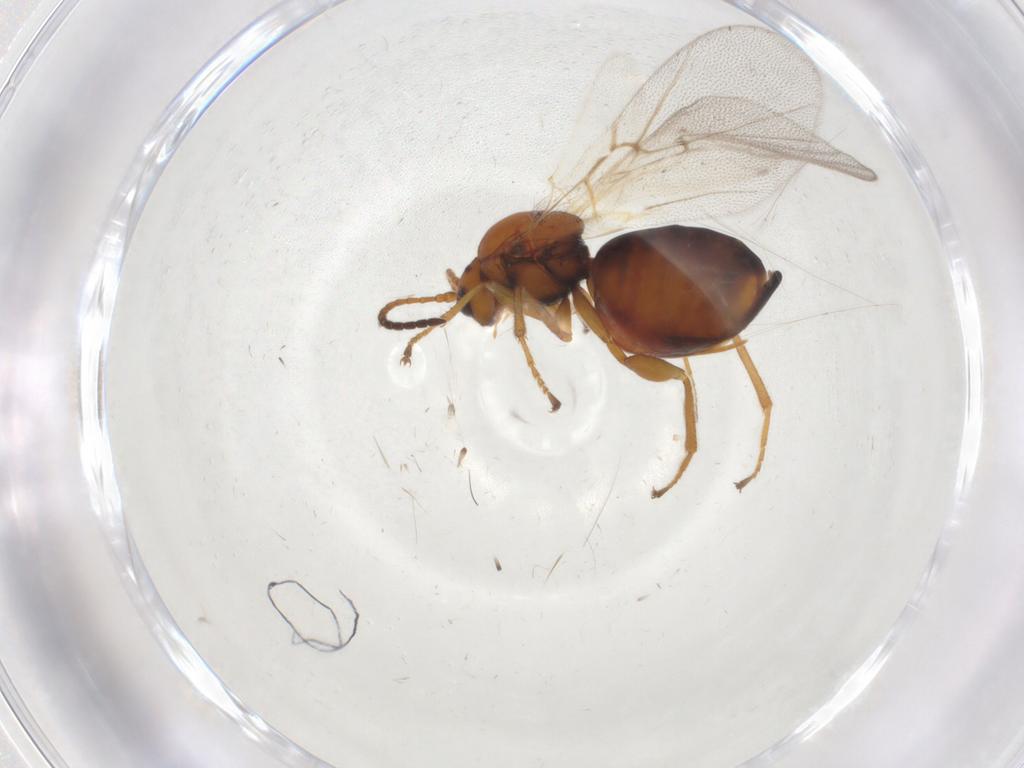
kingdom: Animalia
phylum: Arthropoda
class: Insecta
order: Hymenoptera
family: Cynipidae
